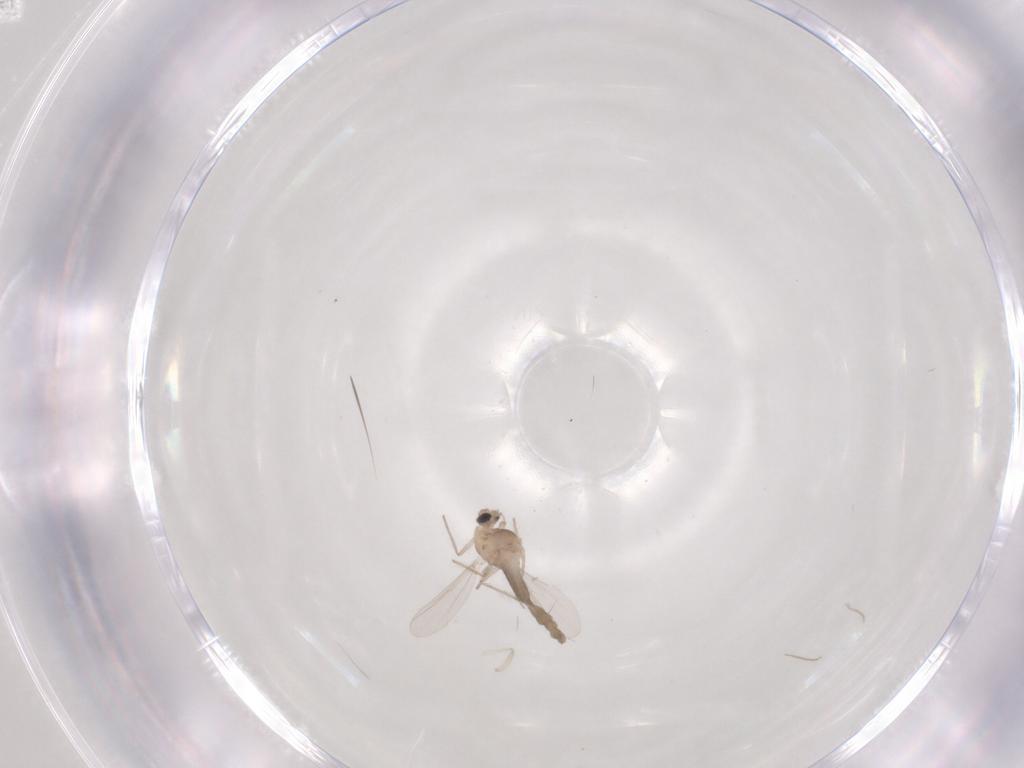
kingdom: Animalia
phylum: Arthropoda
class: Insecta
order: Diptera
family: Chironomidae
